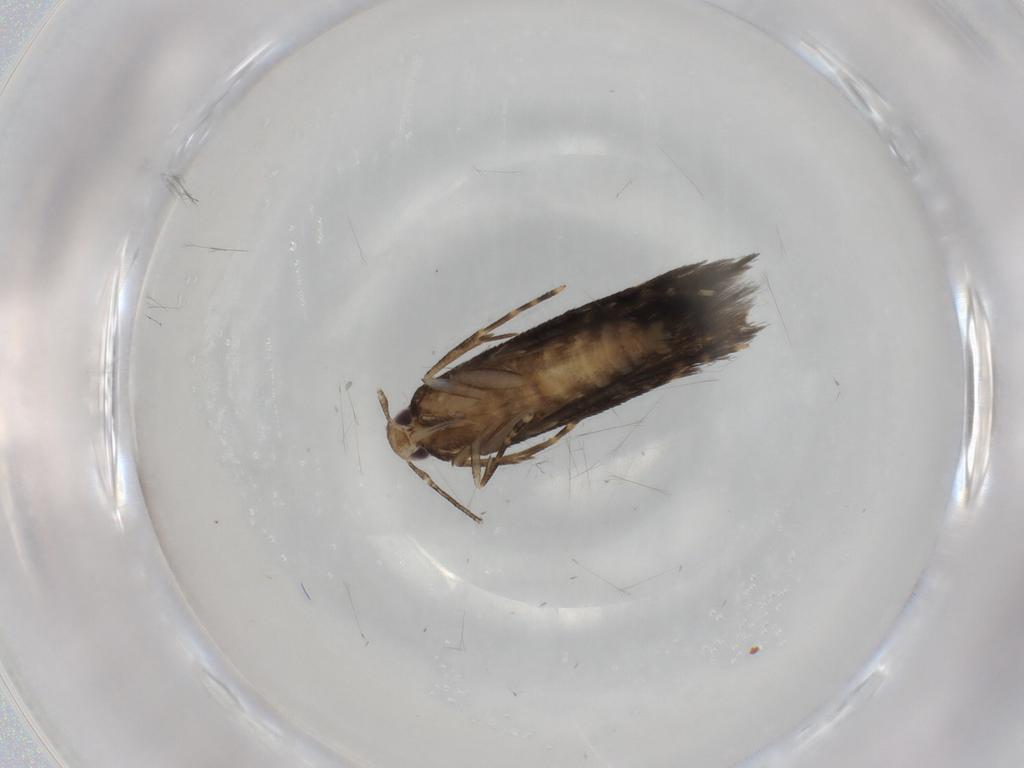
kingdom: Animalia
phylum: Arthropoda
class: Insecta
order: Lepidoptera
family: Cosmopterigidae
